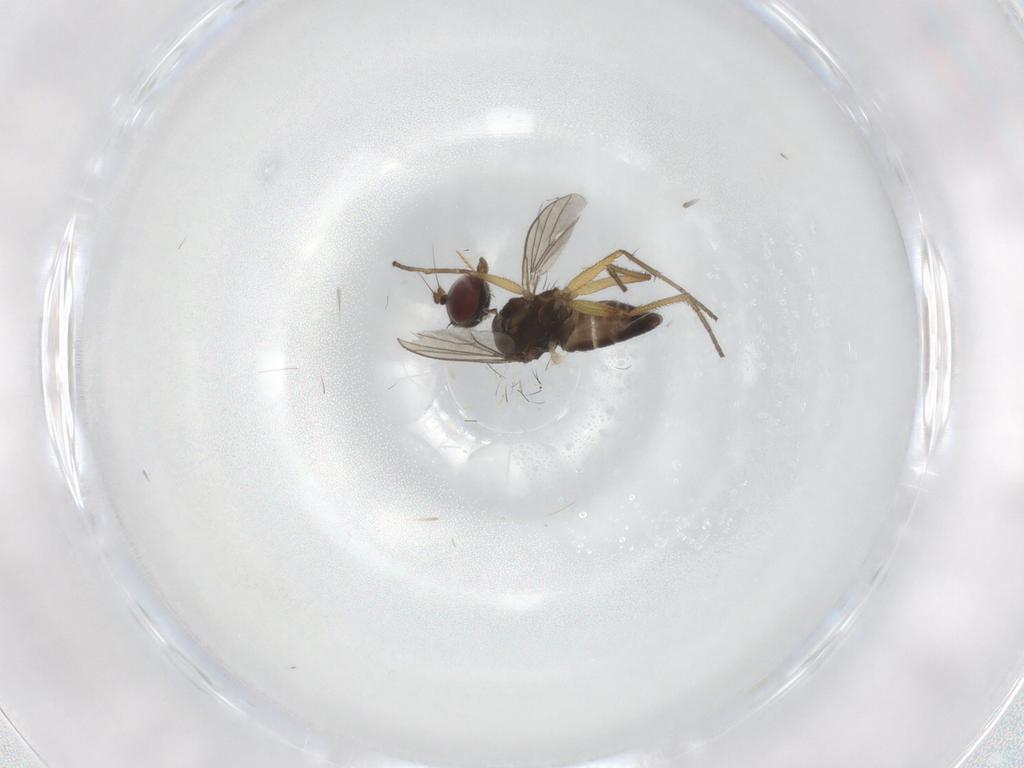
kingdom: Animalia
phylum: Arthropoda
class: Insecta
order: Diptera
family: Dolichopodidae
